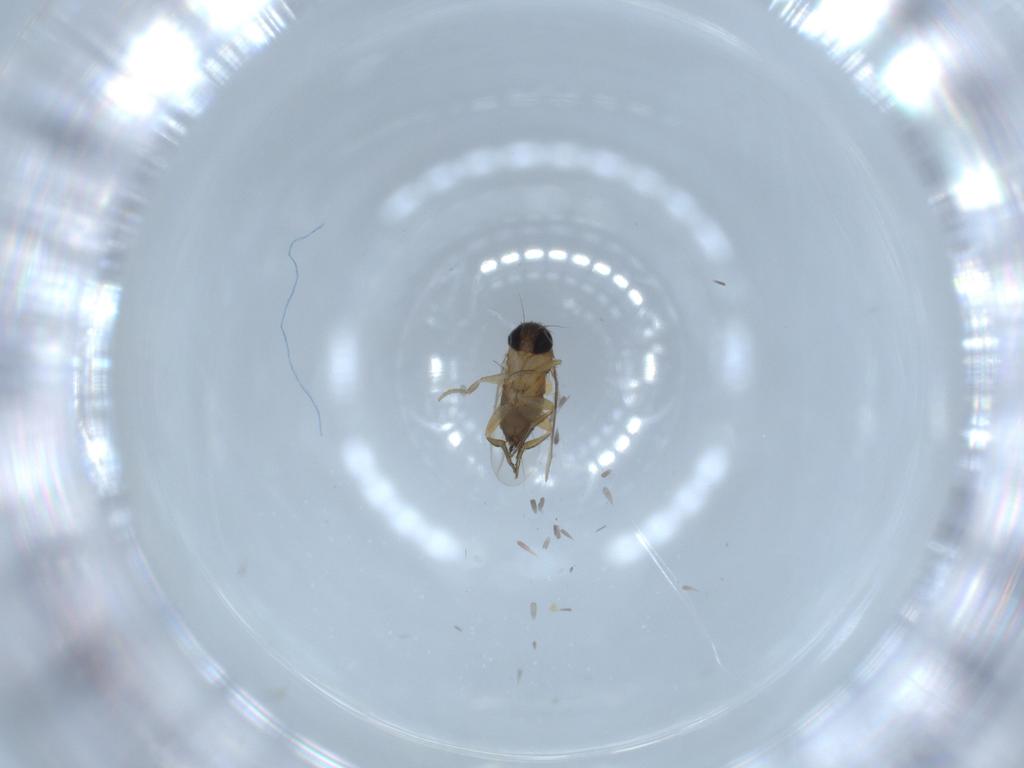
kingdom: Animalia
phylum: Arthropoda
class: Insecta
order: Diptera
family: Phoridae
